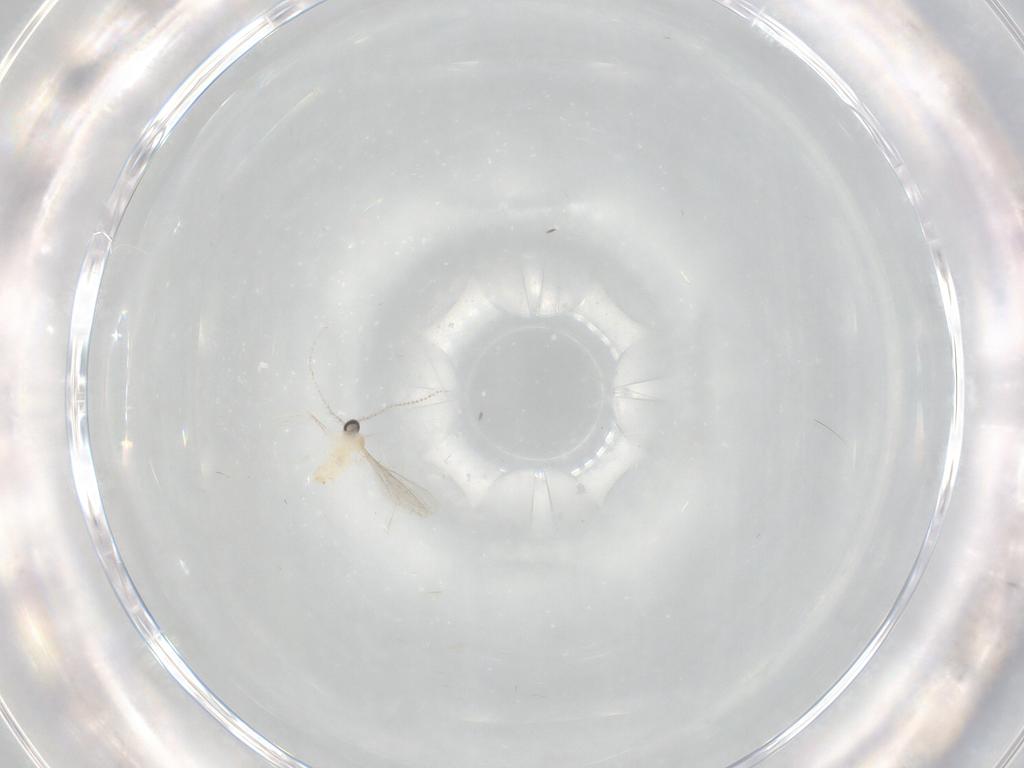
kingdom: Animalia
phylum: Arthropoda
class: Insecta
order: Diptera
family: Cecidomyiidae
